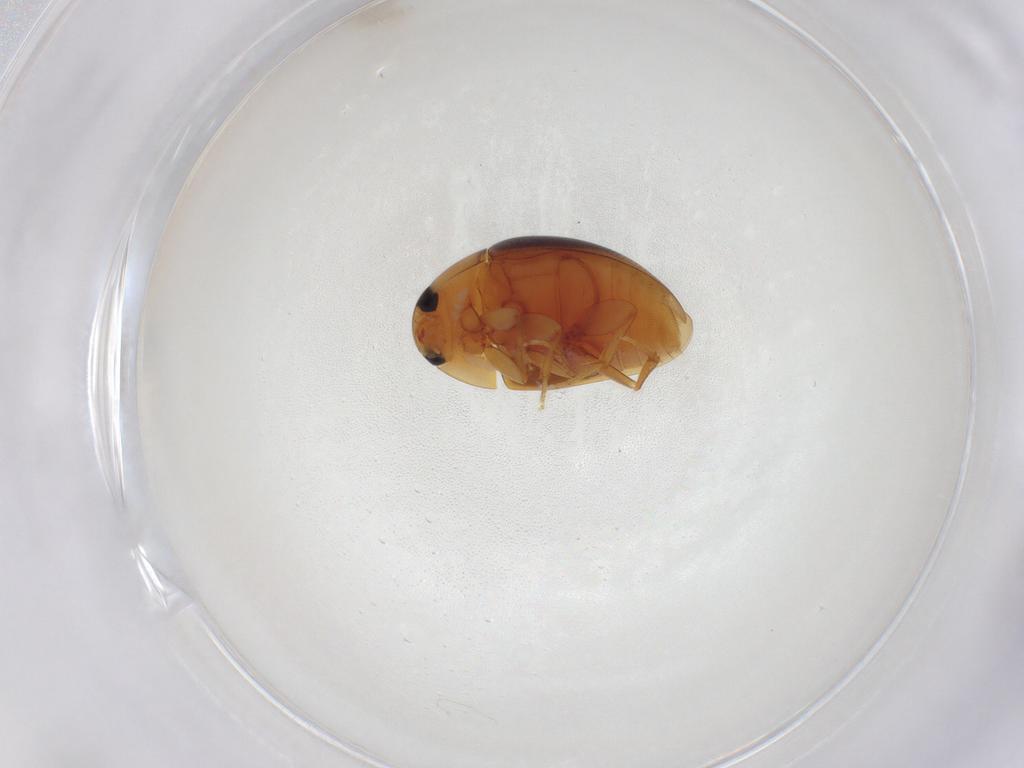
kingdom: Animalia
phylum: Arthropoda
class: Insecta
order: Coleoptera
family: Phalacridae
